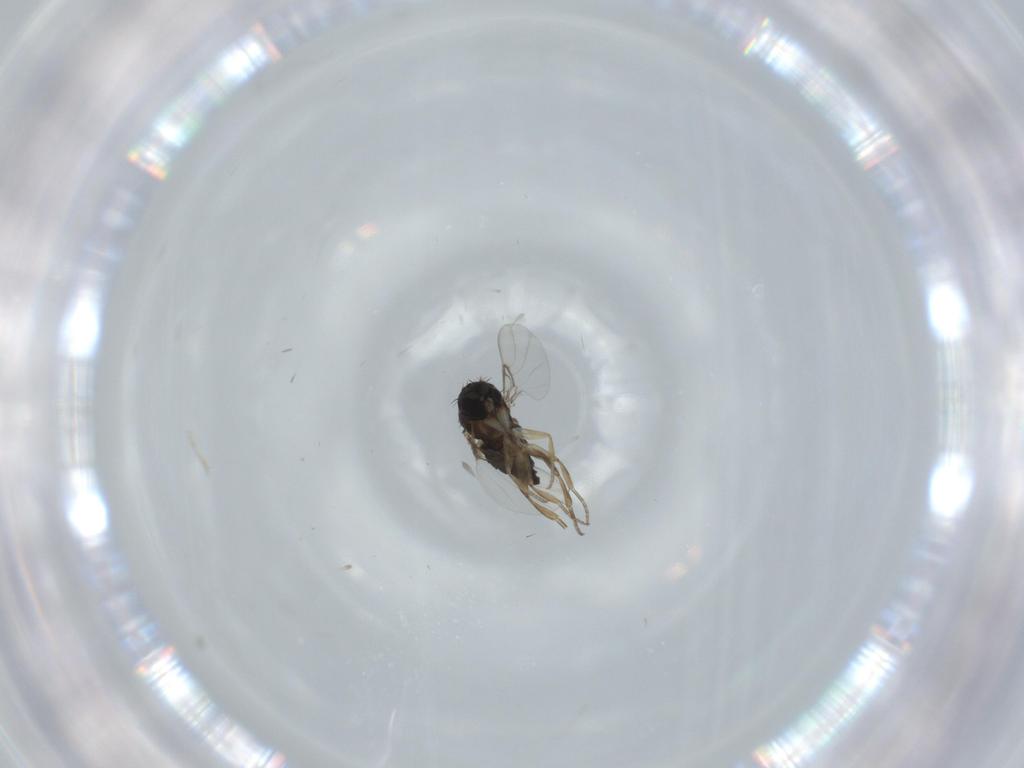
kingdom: Animalia
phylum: Arthropoda
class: Insecta
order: Diptera
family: Phoridae
